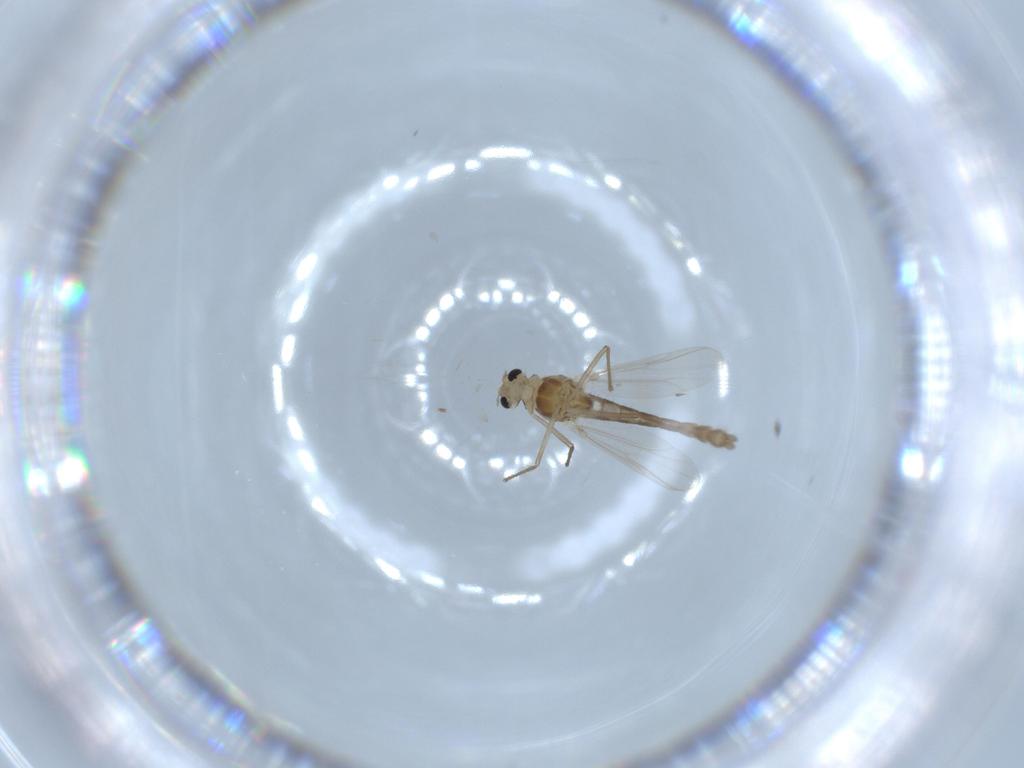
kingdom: Animalia
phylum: Arthropoda
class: Insecta
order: Diptera
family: Chironomidae
